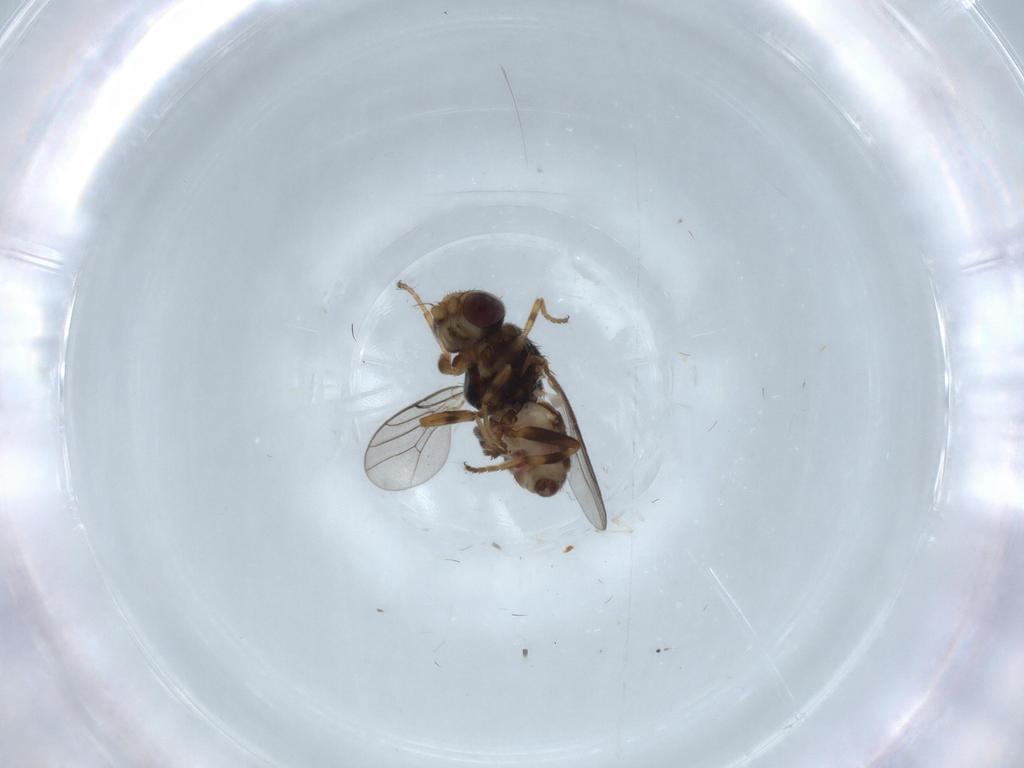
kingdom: Animalia
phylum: Arthropoda
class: Insecta
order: Diptera
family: Chloropidae
